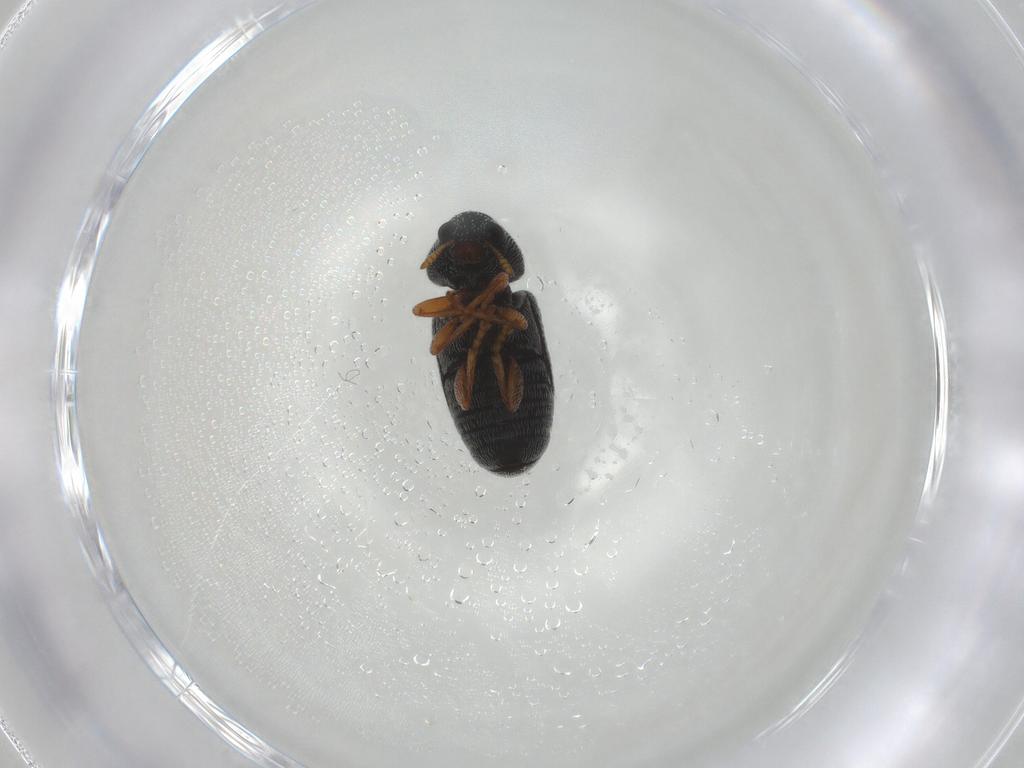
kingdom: Animalia
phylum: Arthropoda
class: Insecta
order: Coleoptera
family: Anthribidae
